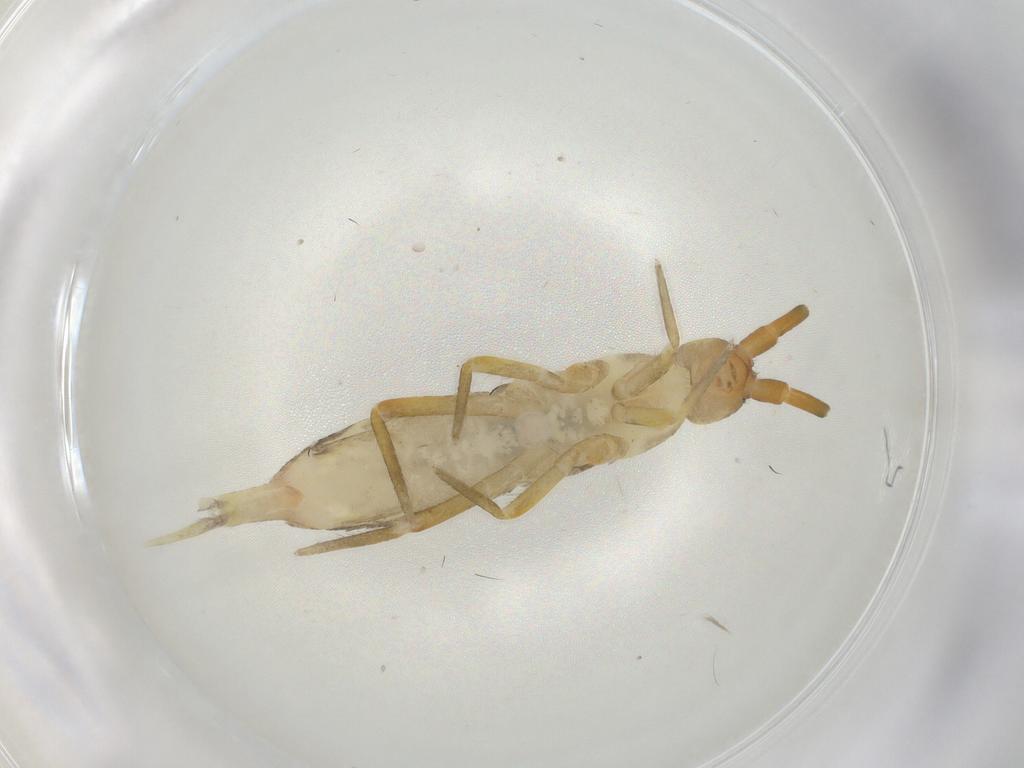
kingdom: Animalia
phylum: Arthropoda
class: Collembola
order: Entomobryomorpha
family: Tomoceridae
